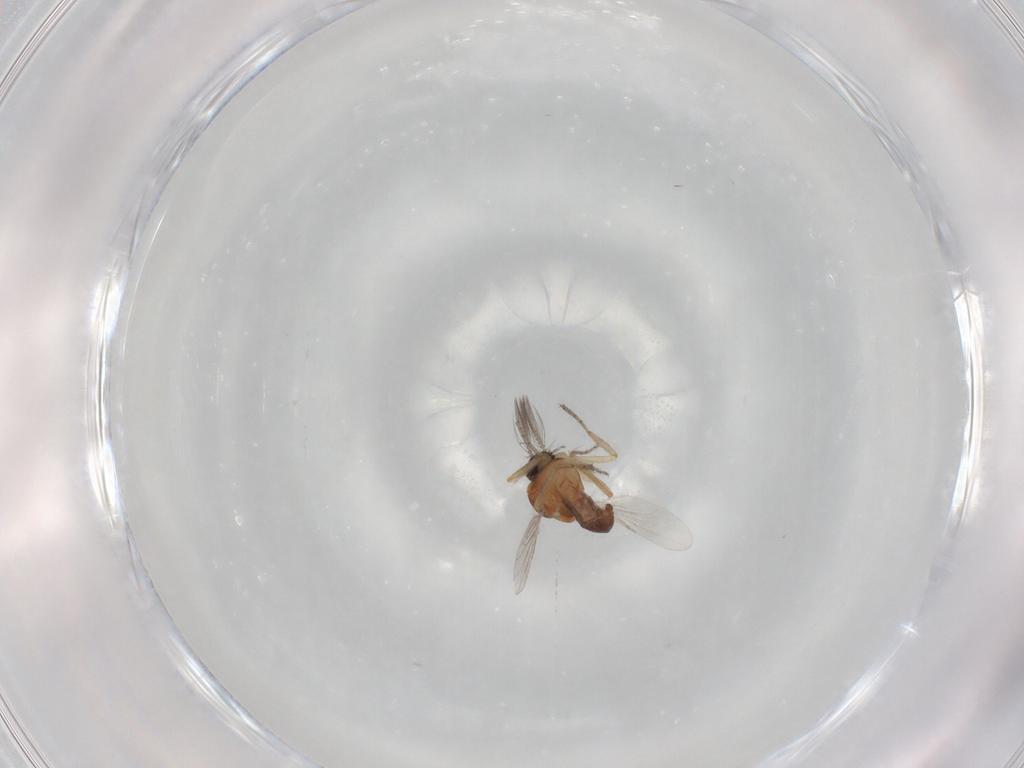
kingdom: Animalia
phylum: Arthropoda
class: Insecta
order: Diptera
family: Ceratopogonidae
